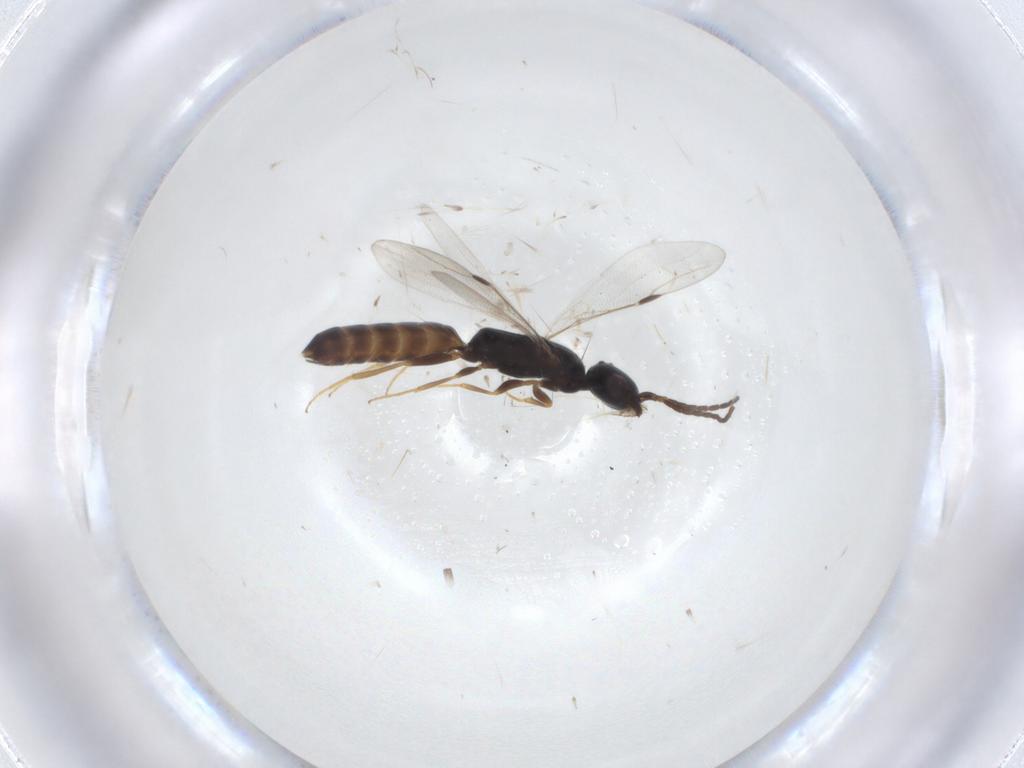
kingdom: Animalia
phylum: Arthropoda
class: Insecta
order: Hymenoptera
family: Bethylidae
